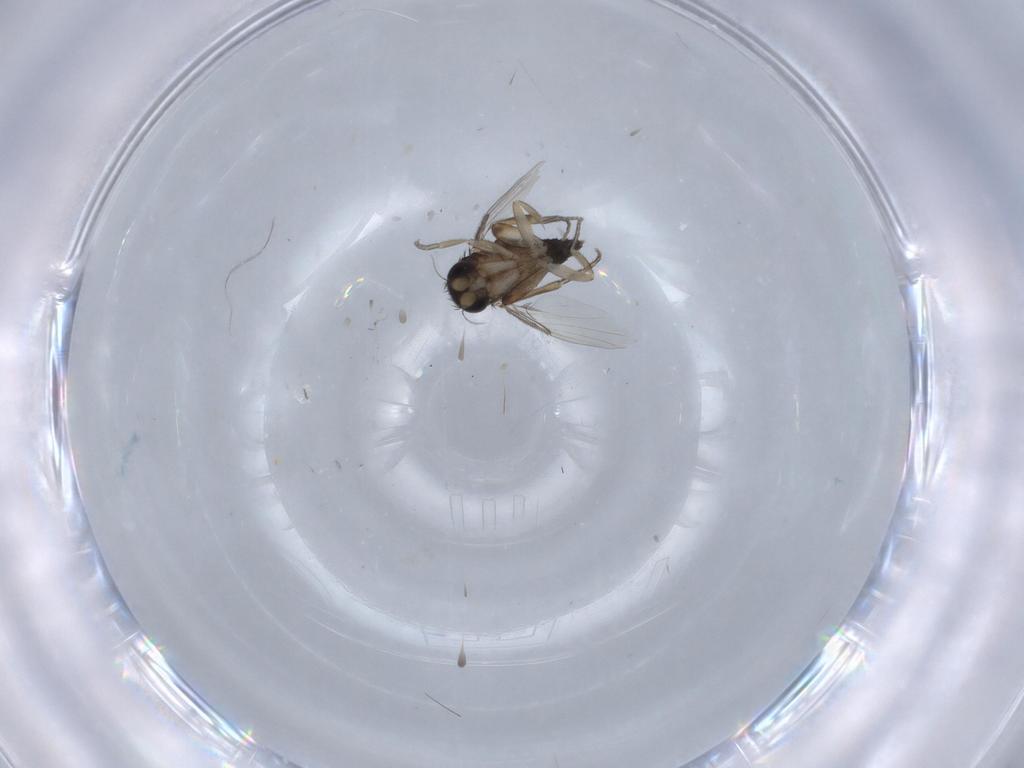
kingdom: Animalia
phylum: Arthropoda
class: Insecta
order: Diptera
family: Phoridae
